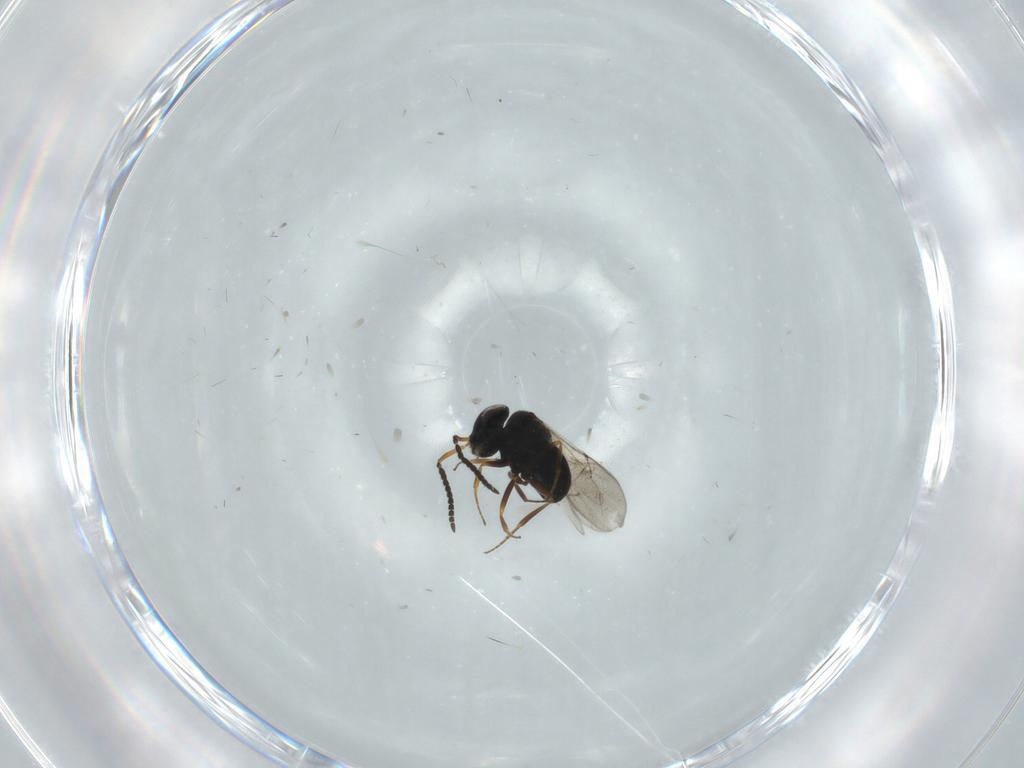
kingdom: Animalia
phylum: Arthropoda
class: Insecta
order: Hymenoptera
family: Scelionidae
